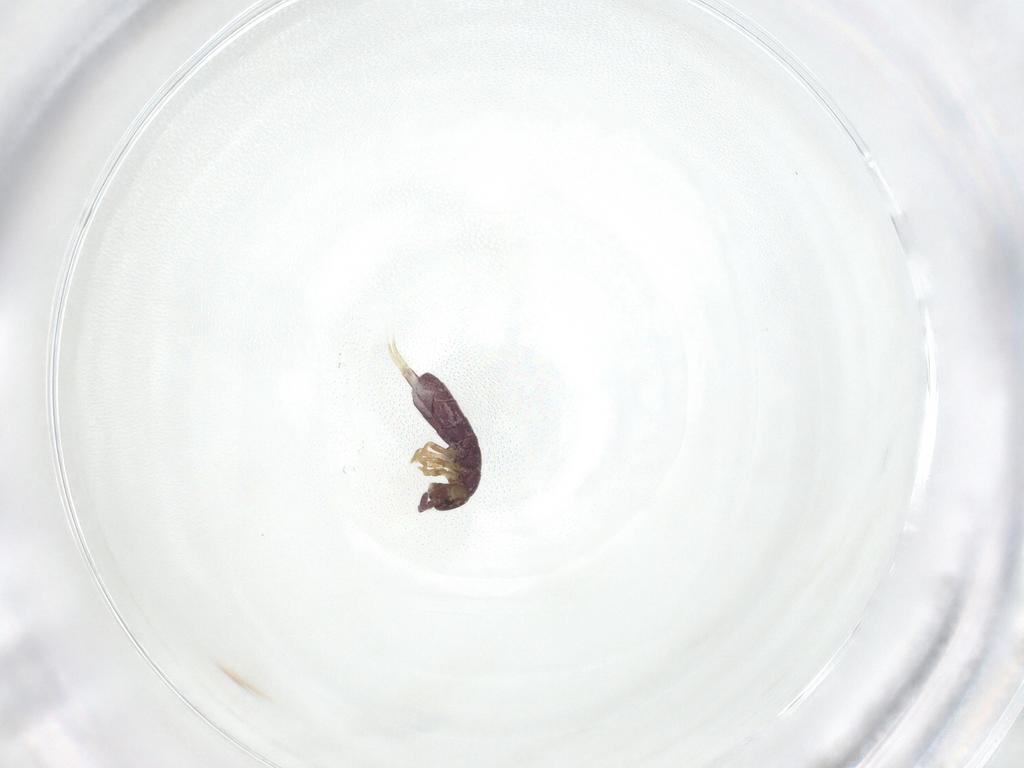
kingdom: Animalia
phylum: Arthropoda
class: Collembola
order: Entomobryomorpha
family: Isotomidae
